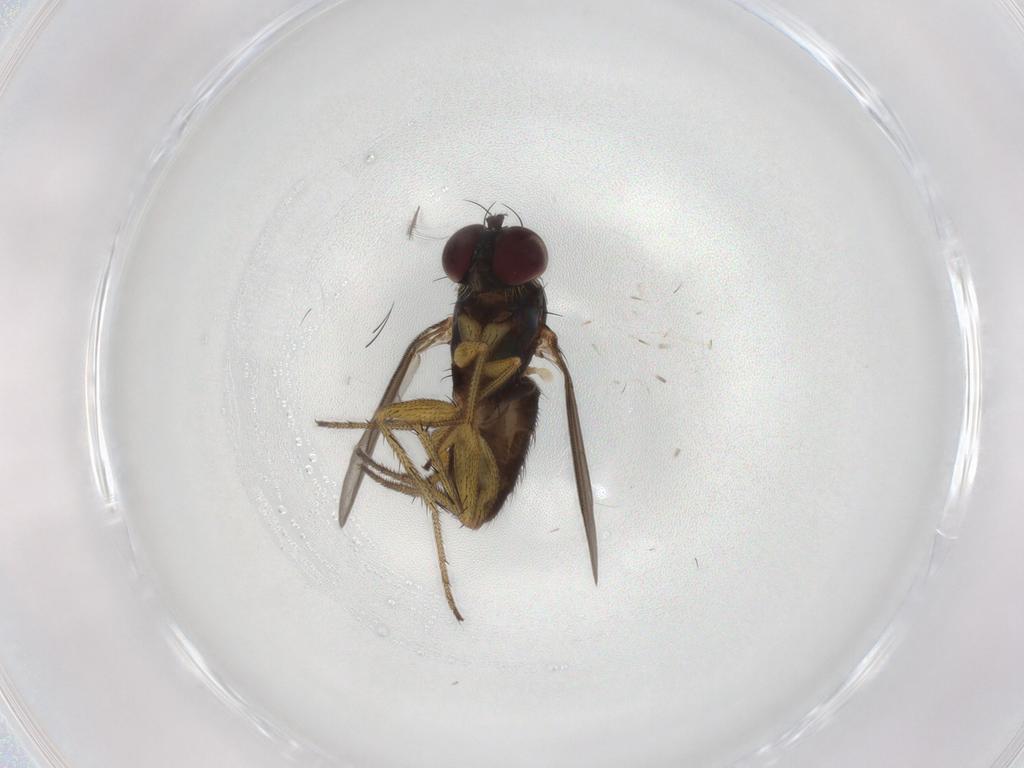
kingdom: Animalia
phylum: Arthropoda
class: Insecta
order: Diptera
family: Dolichopodidae
